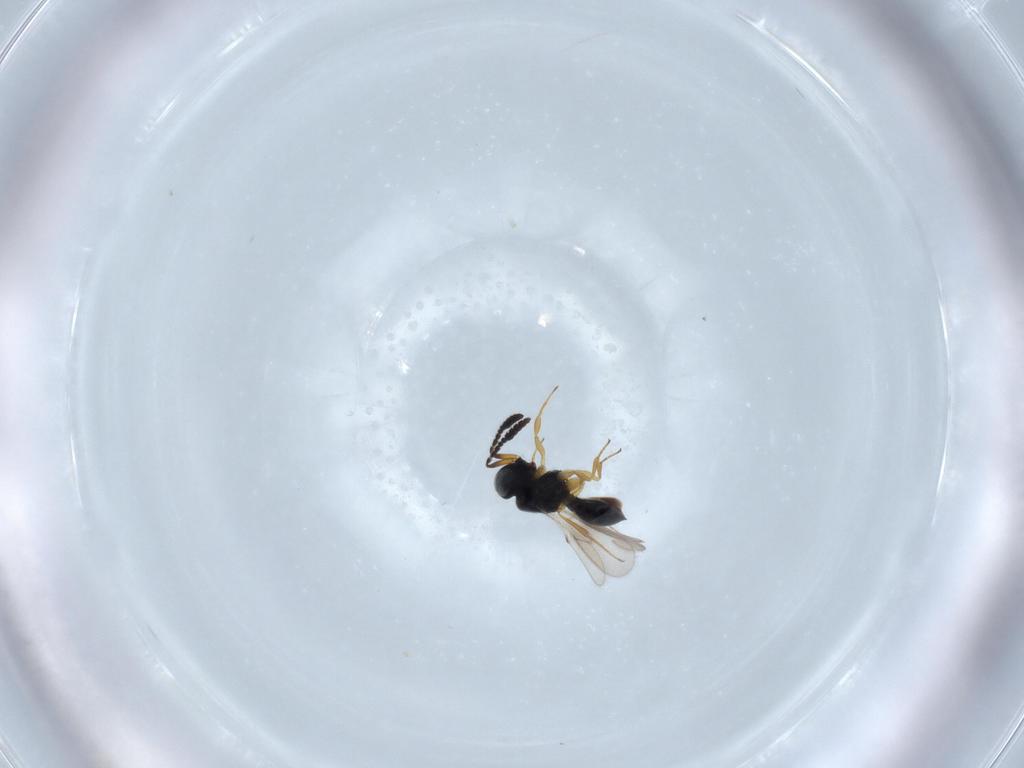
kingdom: Animalia
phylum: Arthropoda
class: Insecta
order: Hymenoptera
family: Scelionidae
